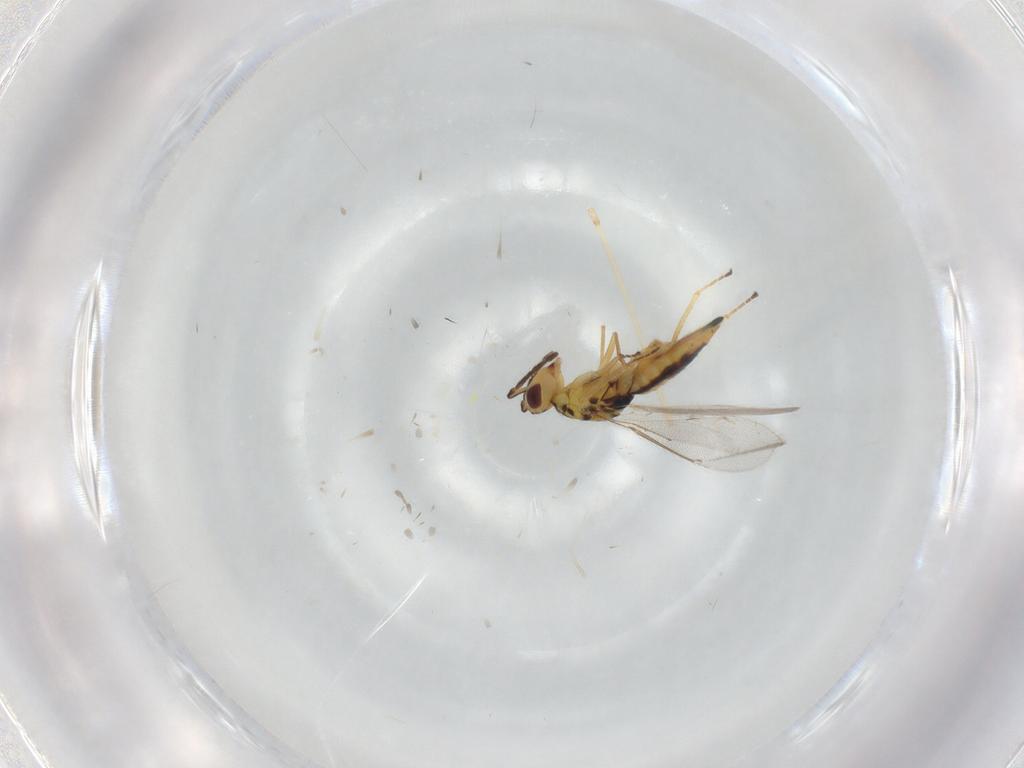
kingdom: Animalia
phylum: Arthropoda
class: Insecta
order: Hymenoptera
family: Eulophidae
